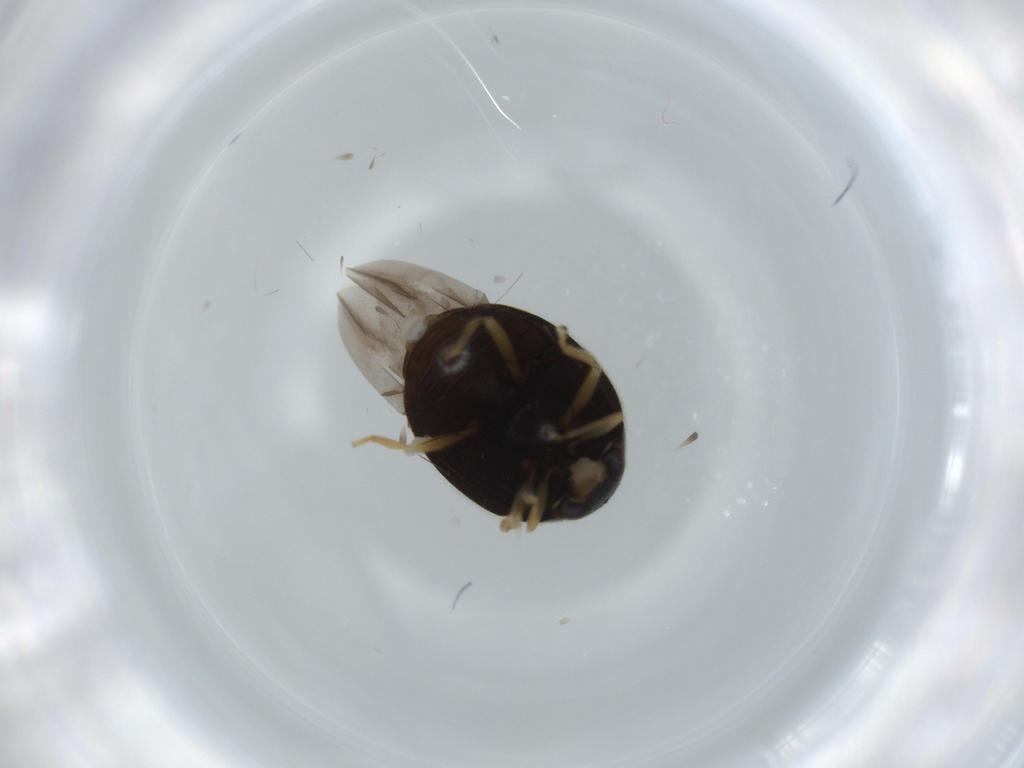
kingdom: Animalia
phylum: Arthropoda
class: Insecta
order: Coleoptera
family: Coccinellidae
